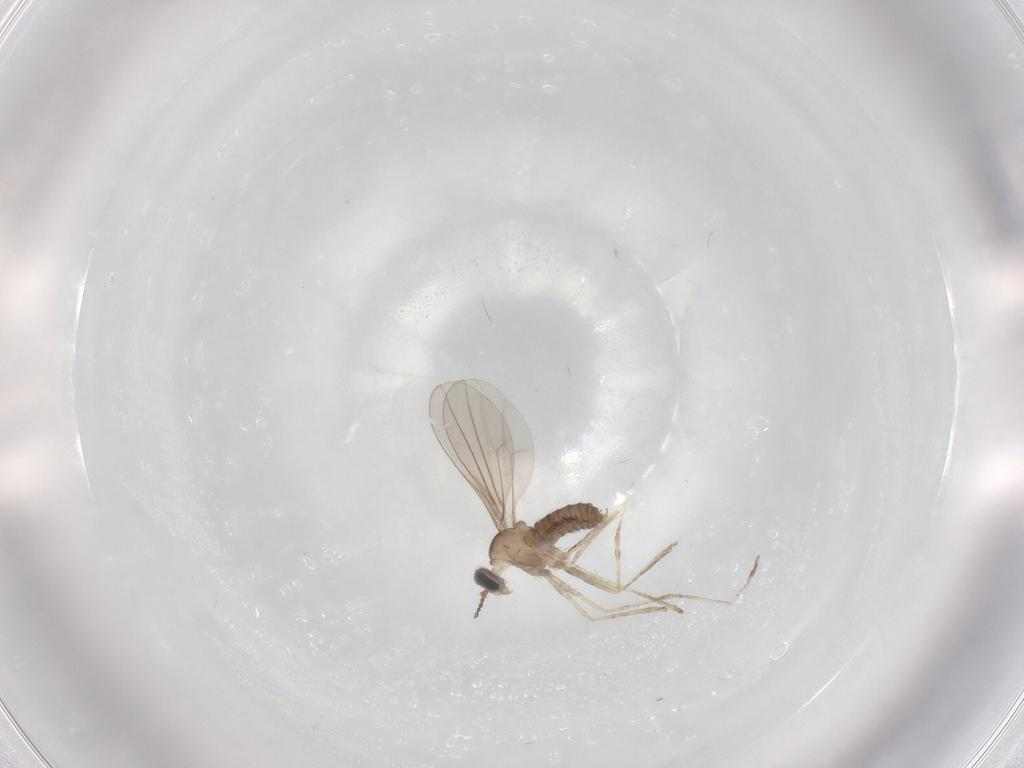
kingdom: Animalia
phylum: Arthropoda
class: Insecta
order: Diptera
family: Cecidomyiidae
